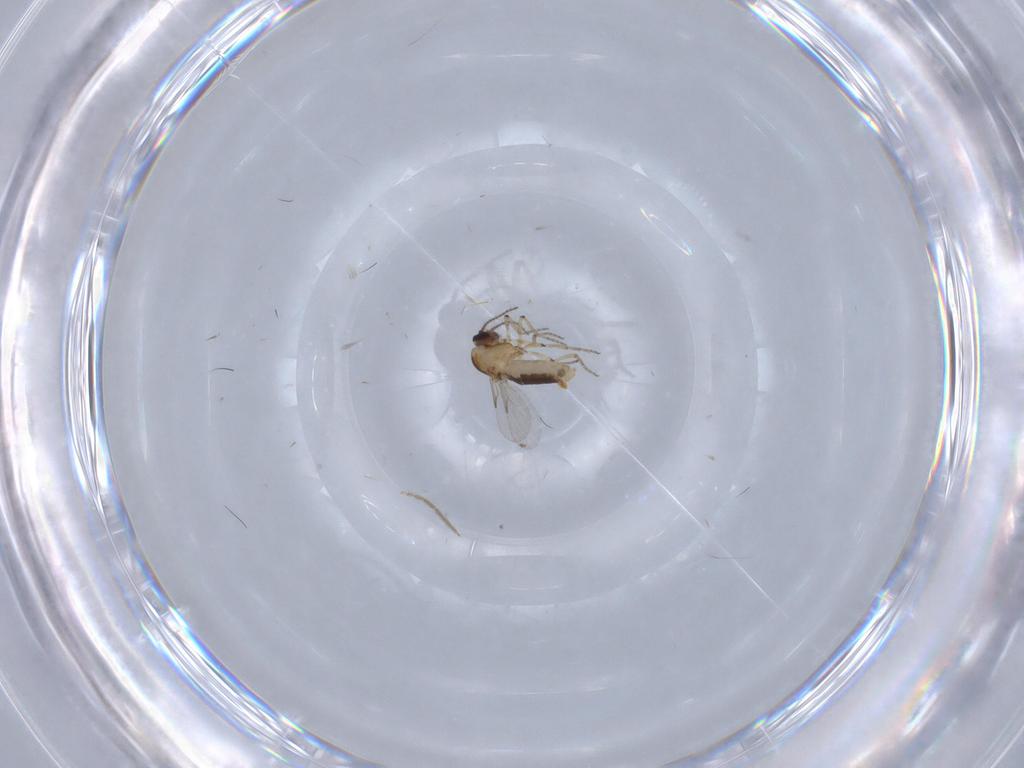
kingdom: Animalia
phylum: Arthropoda
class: Insecta
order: Diptera
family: Ceratopogonidae
